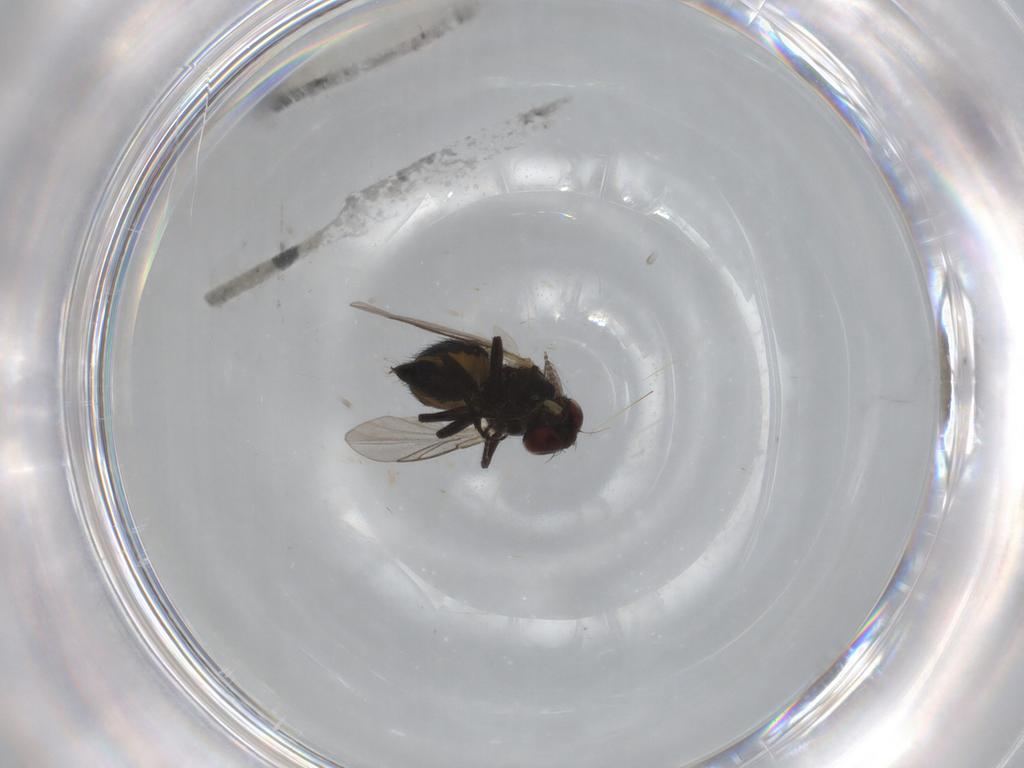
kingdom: Animalia
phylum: Arthropoda
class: Insecta
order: Diptera
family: Agromyzidae
